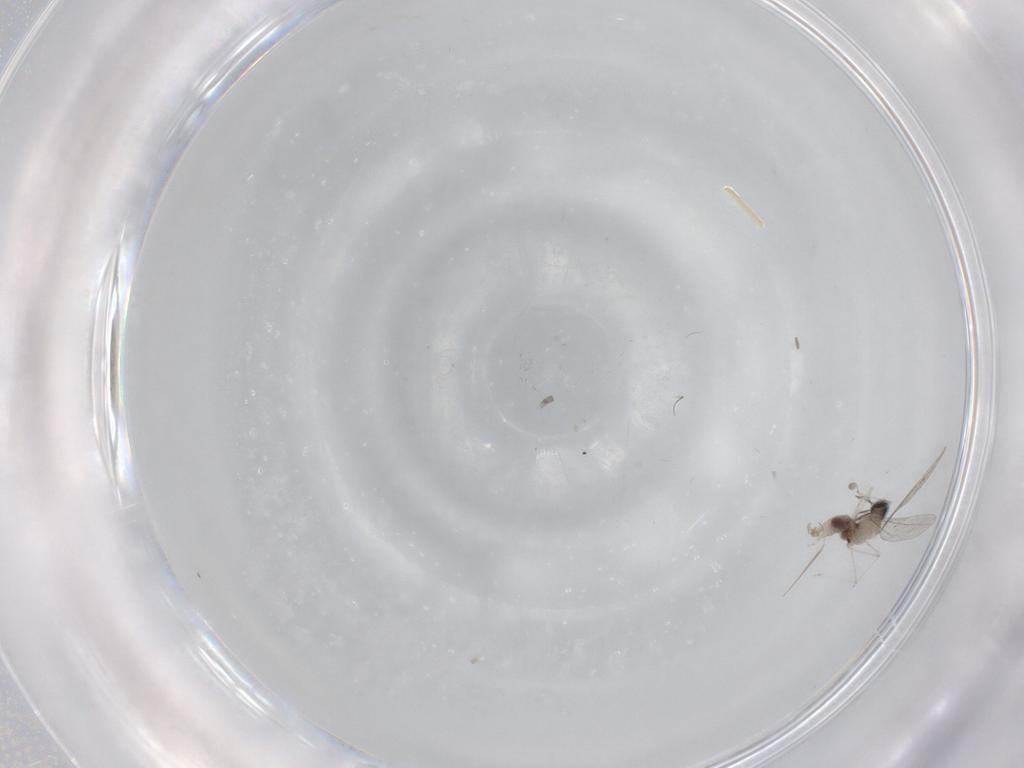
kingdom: Animalia
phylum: Arthropoda
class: Insecta
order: Diptera
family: Cecidomyiidae
